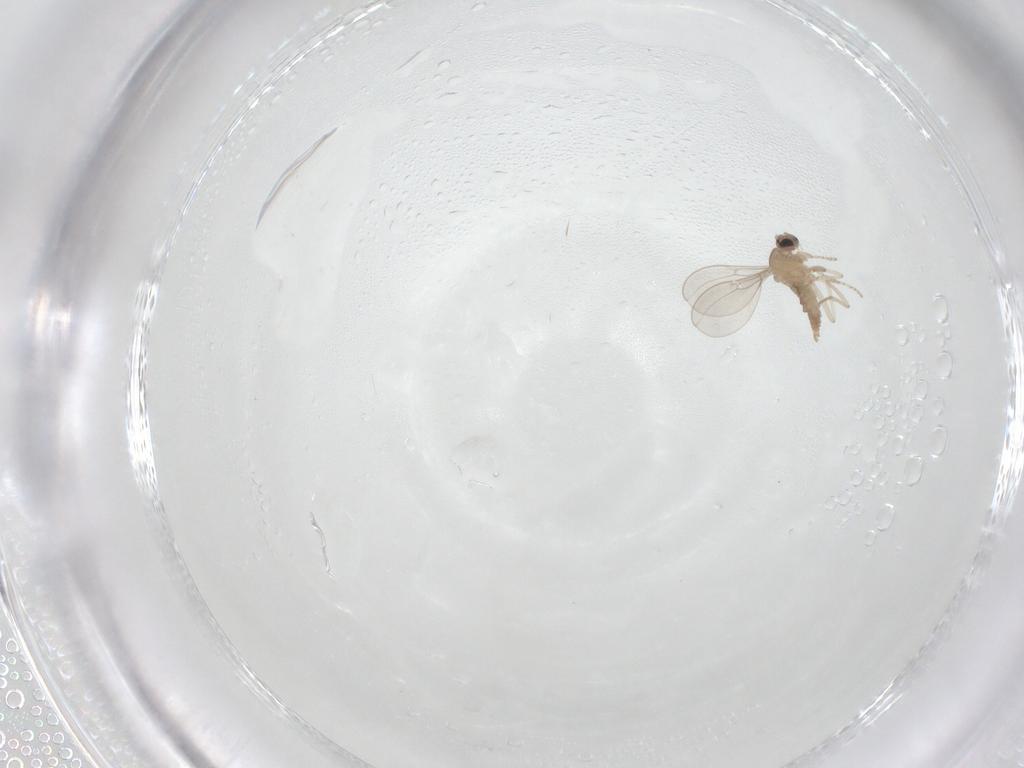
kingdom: Animalia
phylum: Arthropoda
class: Insecta
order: Diptera
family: Cecidomyiidae
